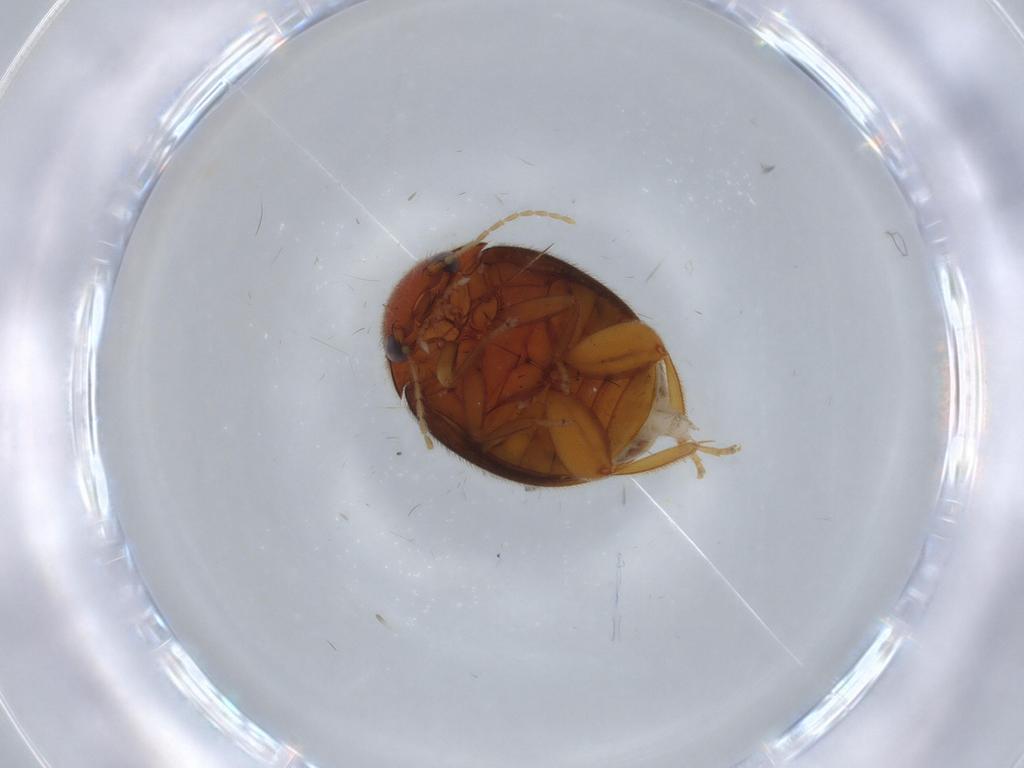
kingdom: Animalia
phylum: Arthropoda
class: Insecta
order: Coleoptera
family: Scirtidae
